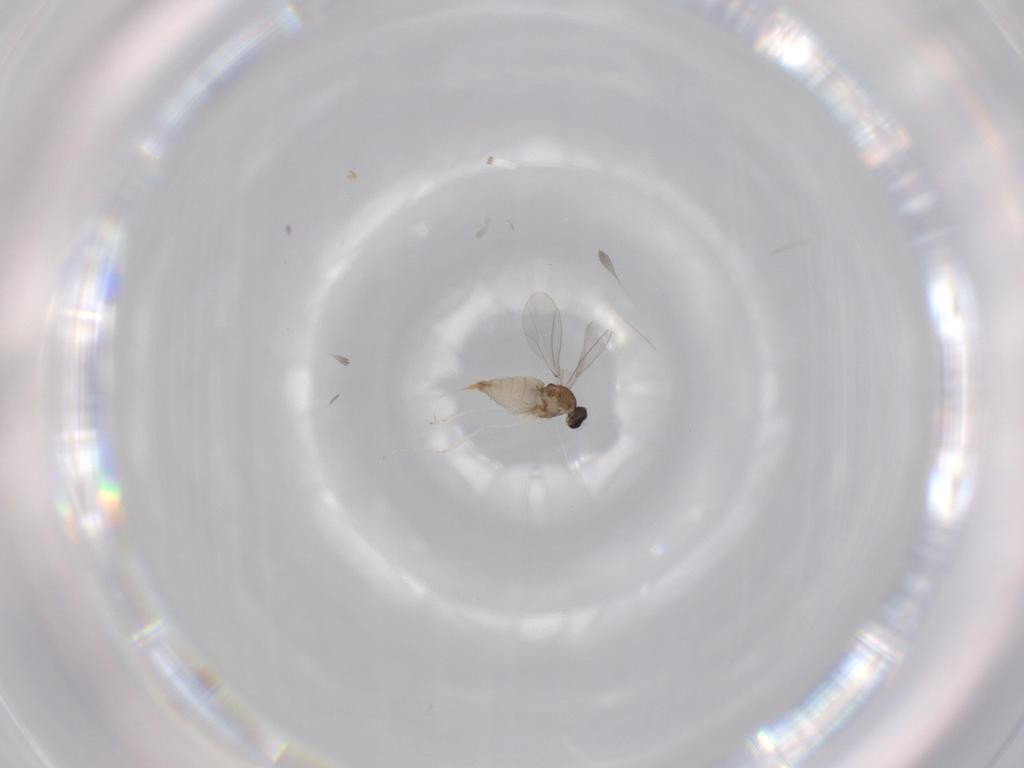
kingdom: Animalia
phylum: Arthropoda
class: Insecta
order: Diptera
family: Cecidomyiidae
